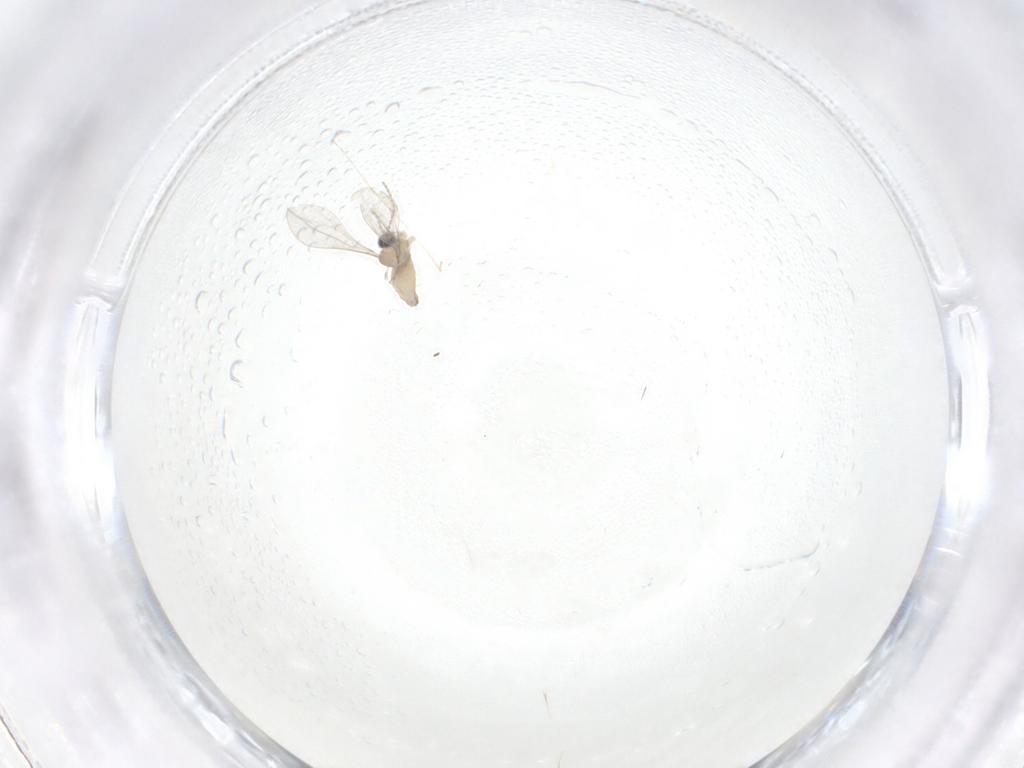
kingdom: Animalia
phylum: Arthropoda
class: Insecta
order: Diptera
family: Cecidomyiidae
